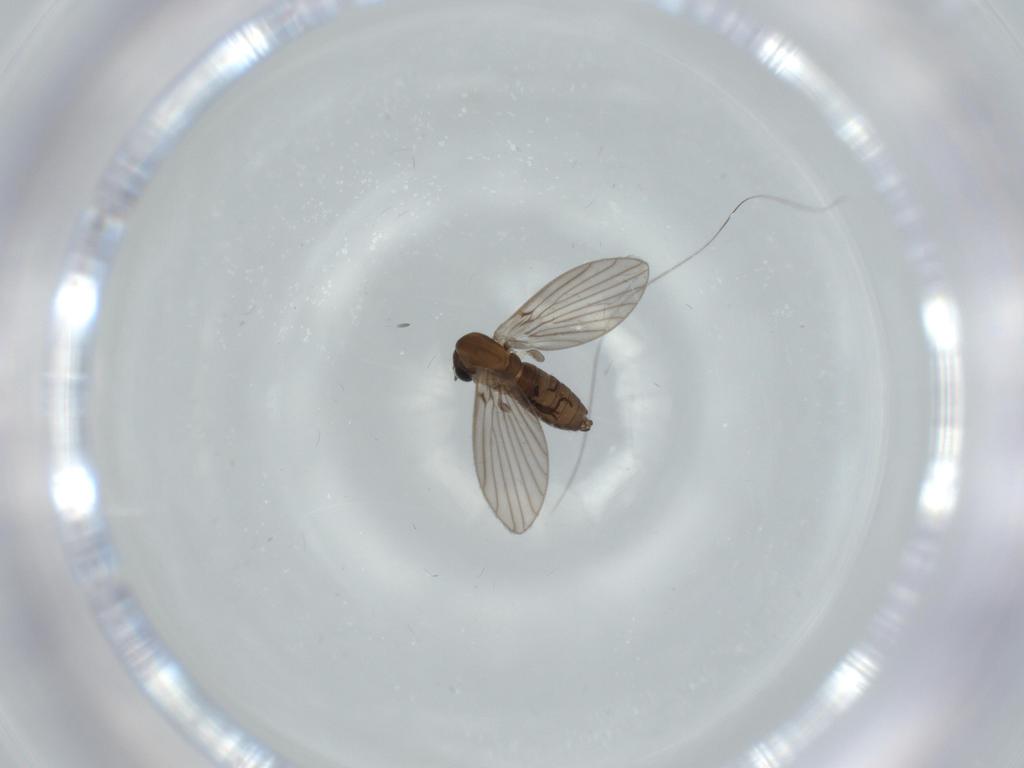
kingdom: Animalia
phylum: Arthropoda
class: Insecta
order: Diptera
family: Psychodidae
